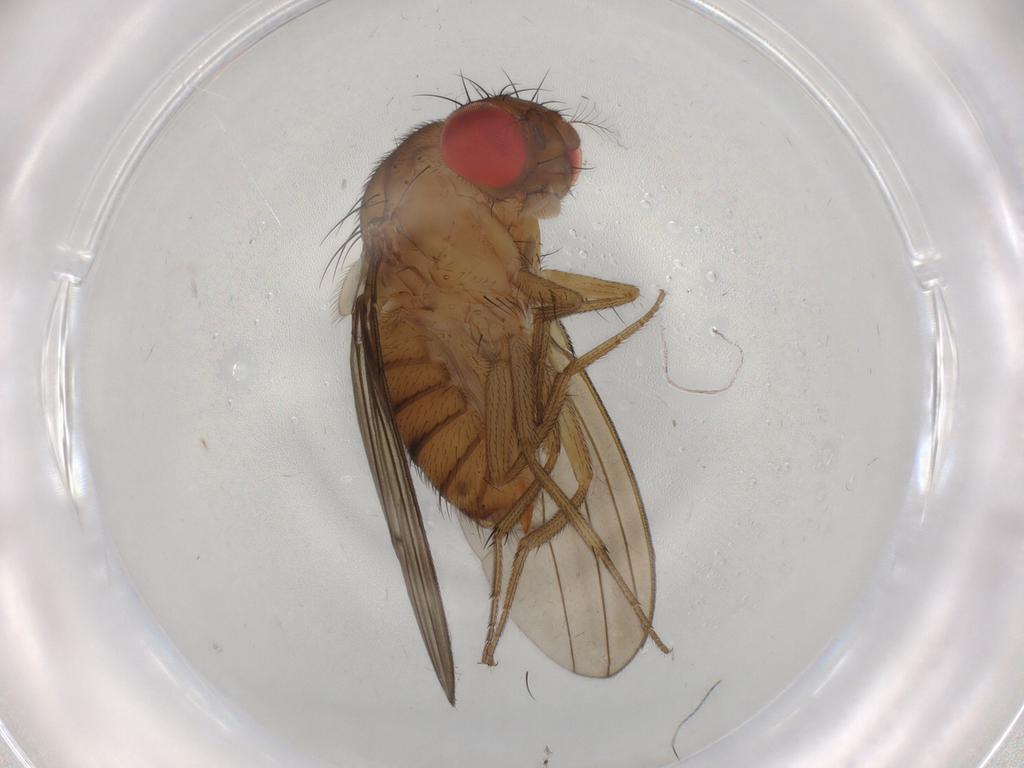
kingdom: Animalia
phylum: Arthropoda
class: Insecta
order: Diptera
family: Drosophilidae
